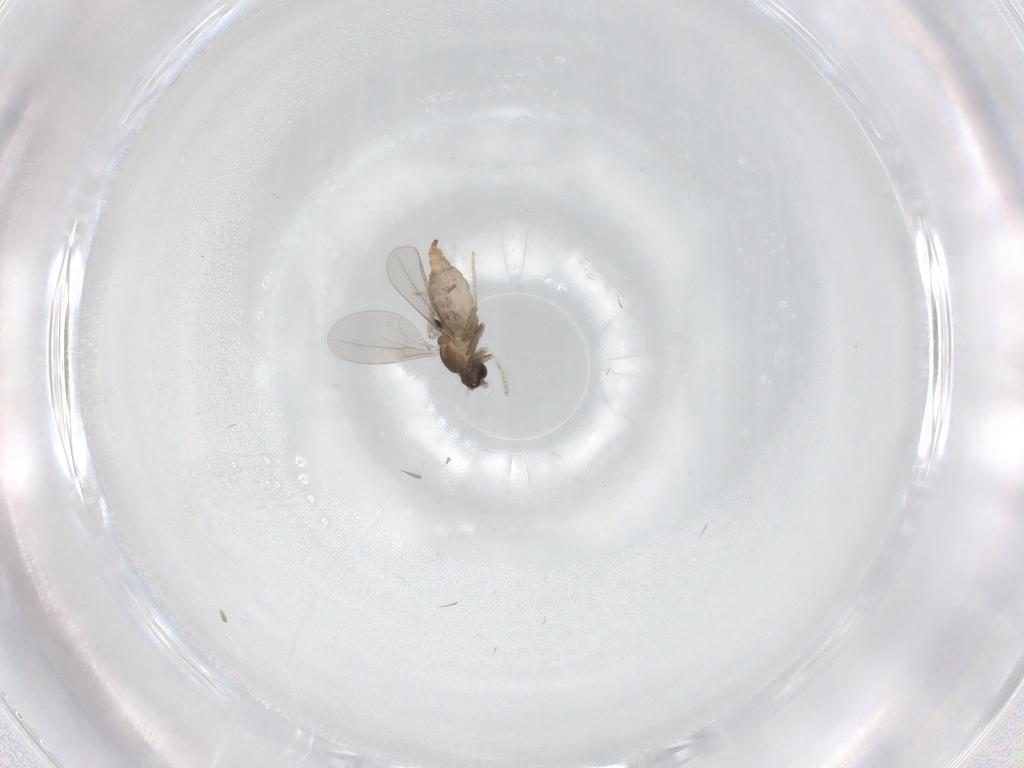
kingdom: Animalia
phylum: Arthropoda
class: Insecta
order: Diptera
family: Cecidomyiidae
